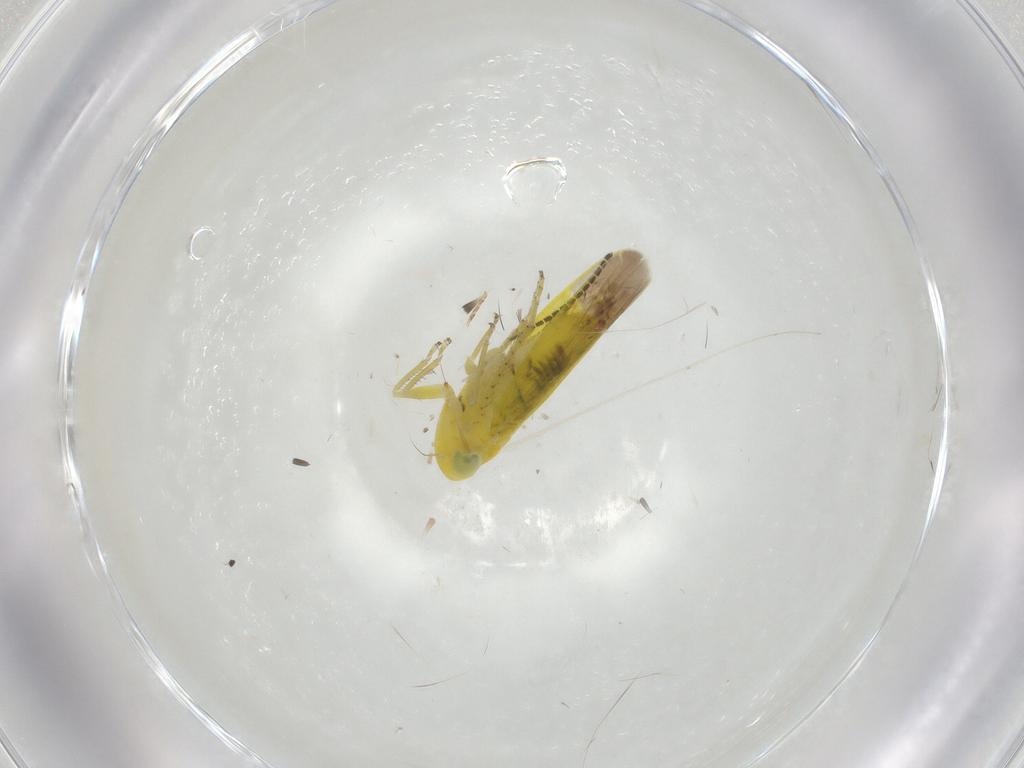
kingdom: Animalia
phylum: Arthropoda
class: Insecta
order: Hemiptera
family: Cicadellidae
